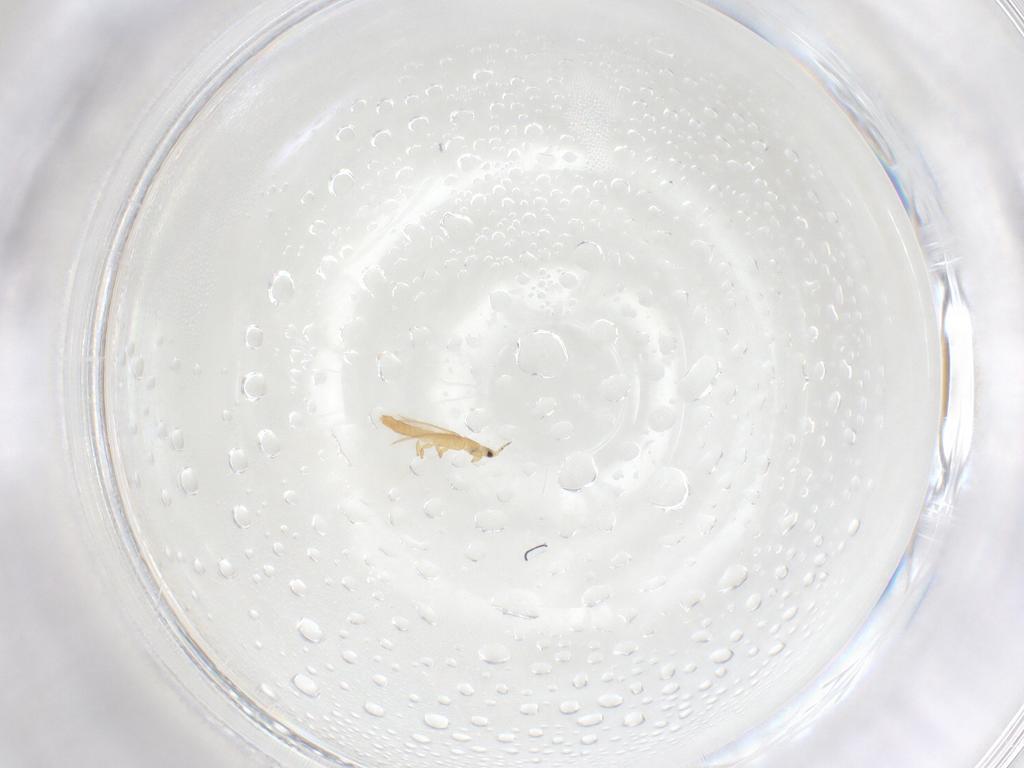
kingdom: Animalia
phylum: Arthropoda
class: Insecta
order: Thysanoptera
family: Thripidae
